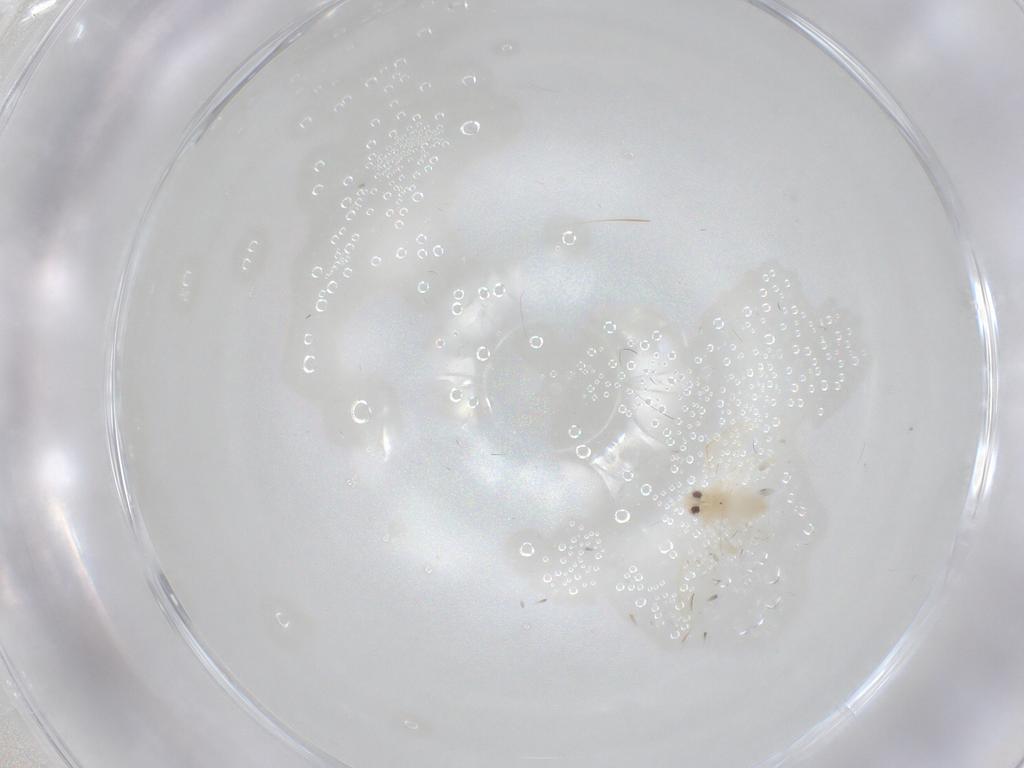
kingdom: Animalia
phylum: Arthropoda
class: Insecta
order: Hemiptera
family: Aleyrodidae
